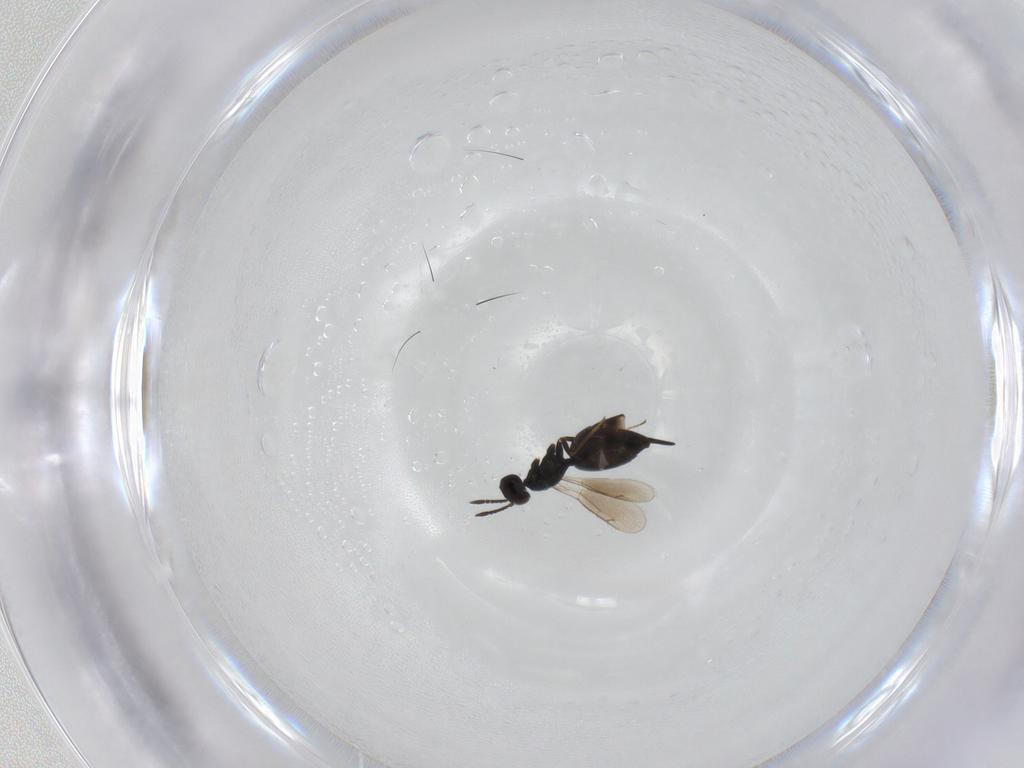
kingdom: Animalia
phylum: Arthropoda
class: Insecta
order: Hymenoptera
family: Pteromalidae
